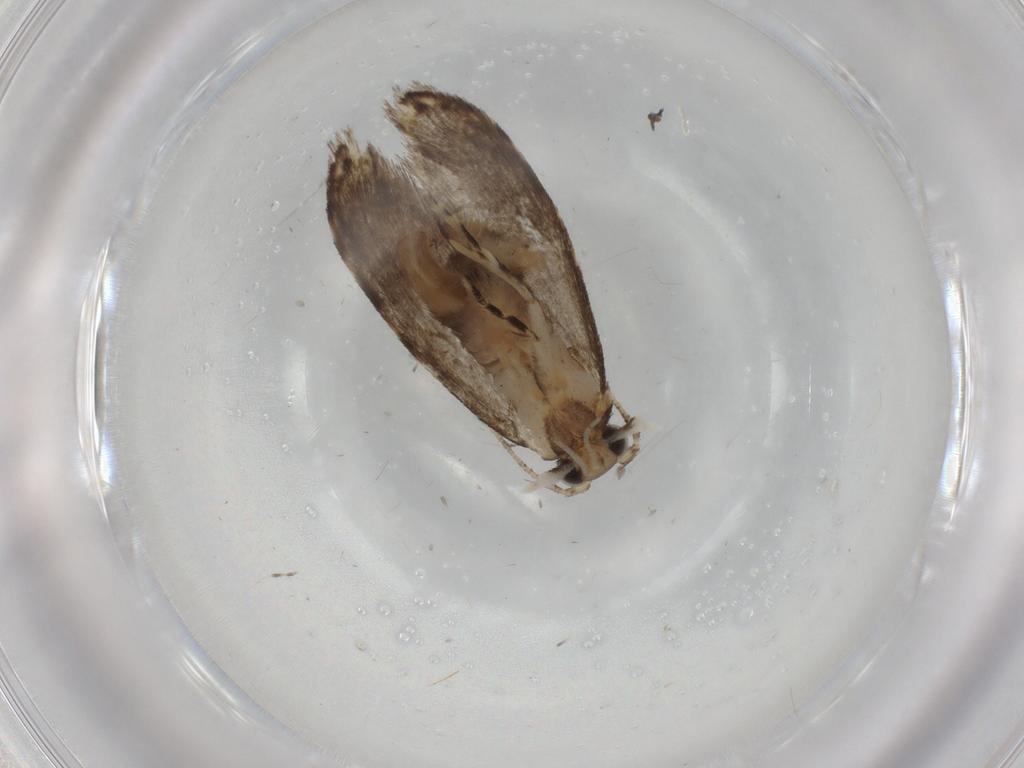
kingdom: Animalia
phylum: Arthropoda
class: Insecta
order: Lepidoptera
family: Tineidae
